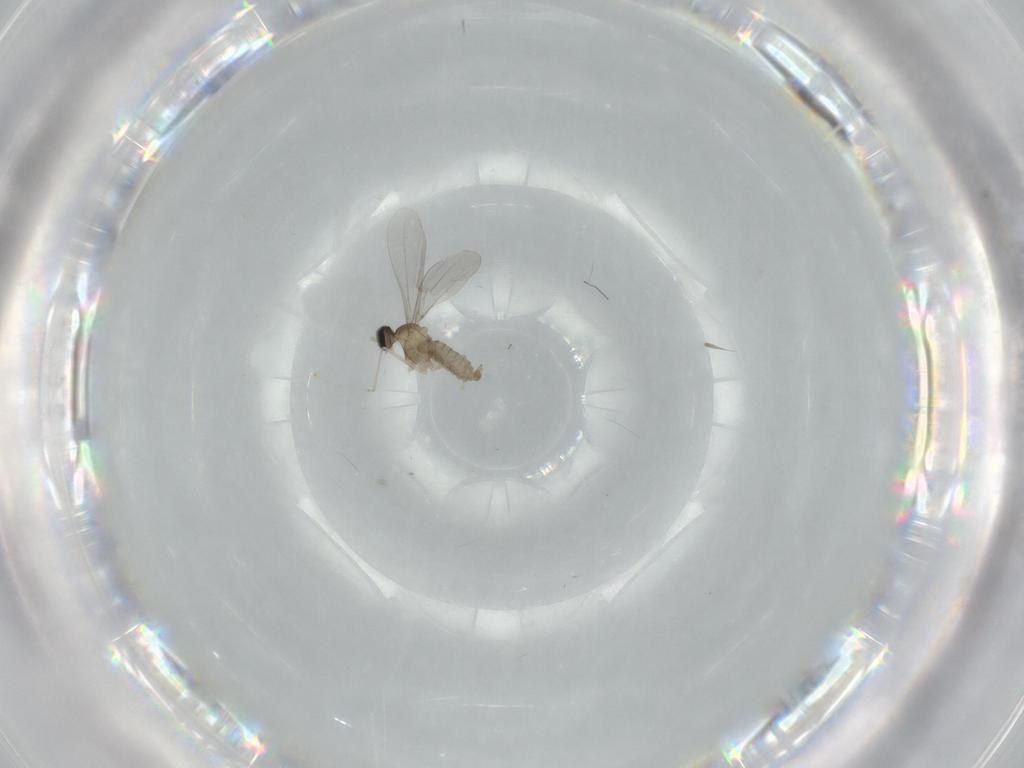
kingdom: Animalia
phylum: Arthropoda
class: Insecta
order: Diptera
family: Cecidomyiidae
